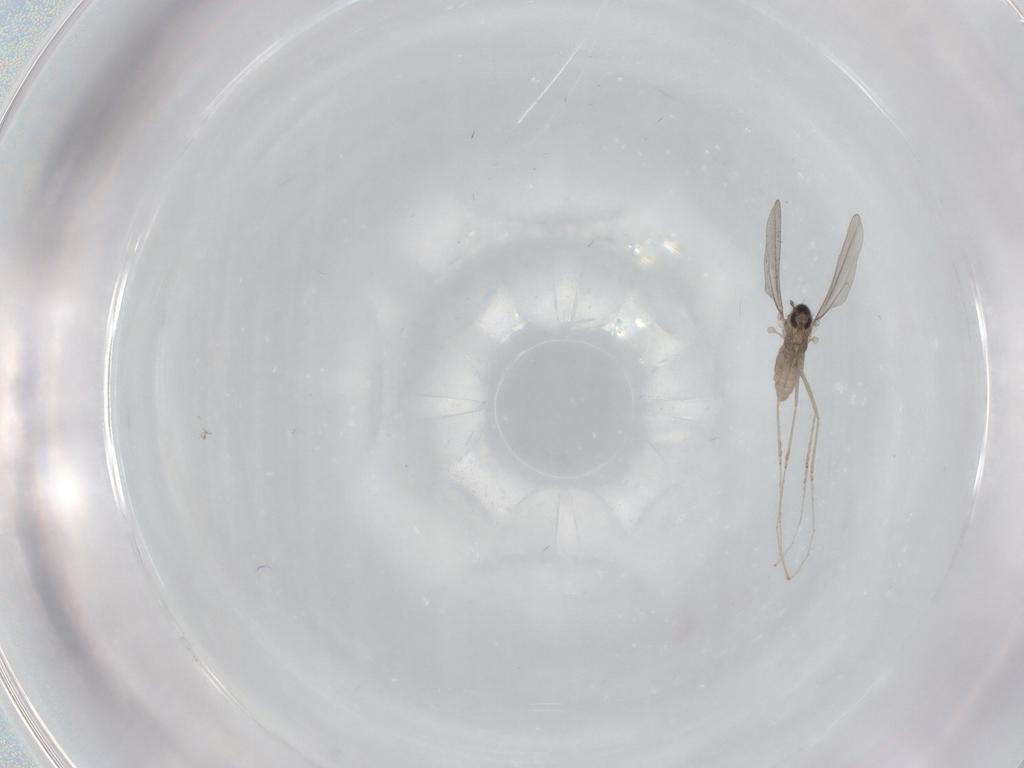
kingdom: Animalia
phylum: Arthropoda
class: Insecta
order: Diptera
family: Cecidomyiidae
